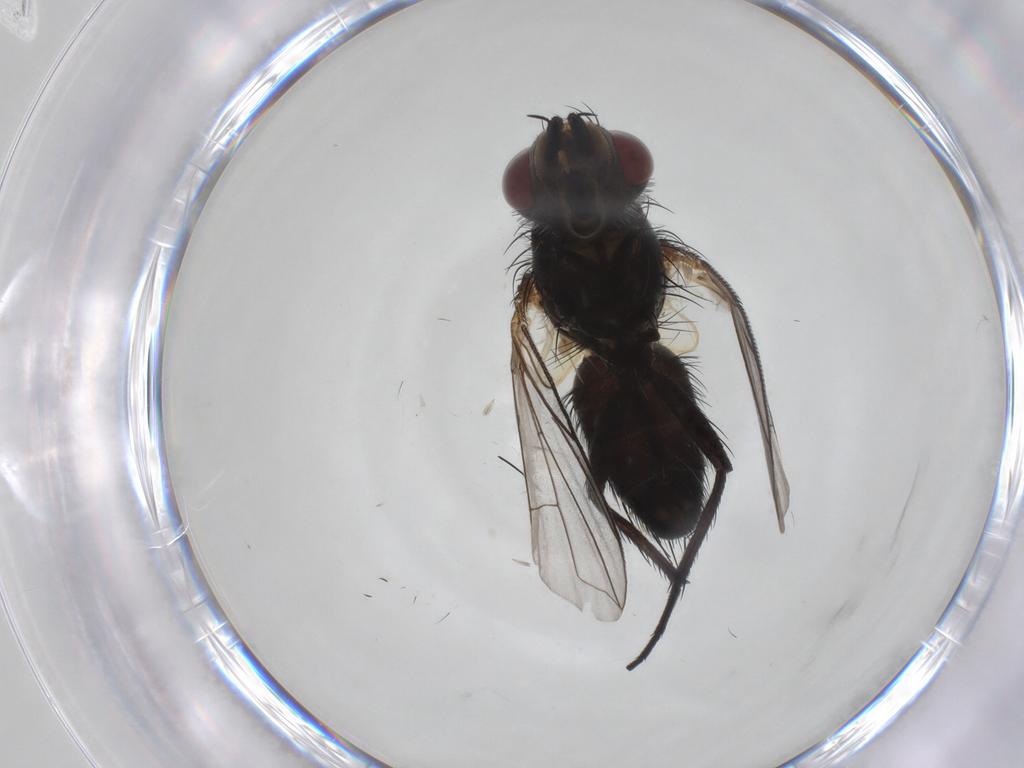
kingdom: Animalia
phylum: Arthropoda
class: Insecta
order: Diptera
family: Tachinidae
